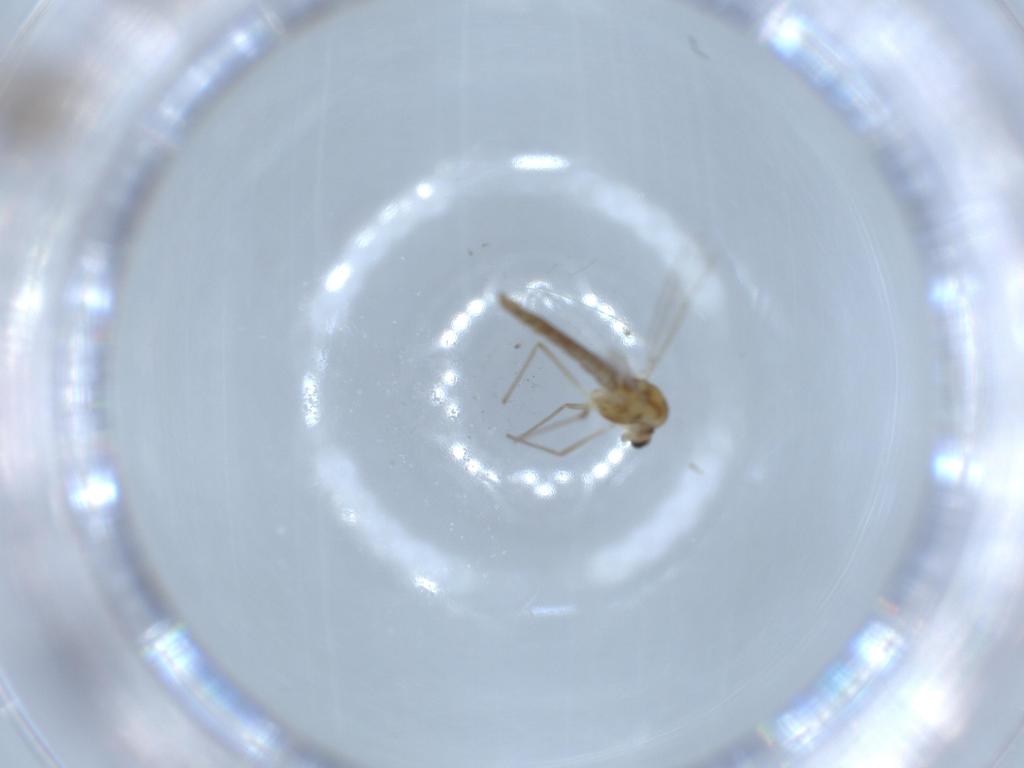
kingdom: Animalia
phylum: Arthropoda
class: Insecta
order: Diptera
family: Chironomidae
